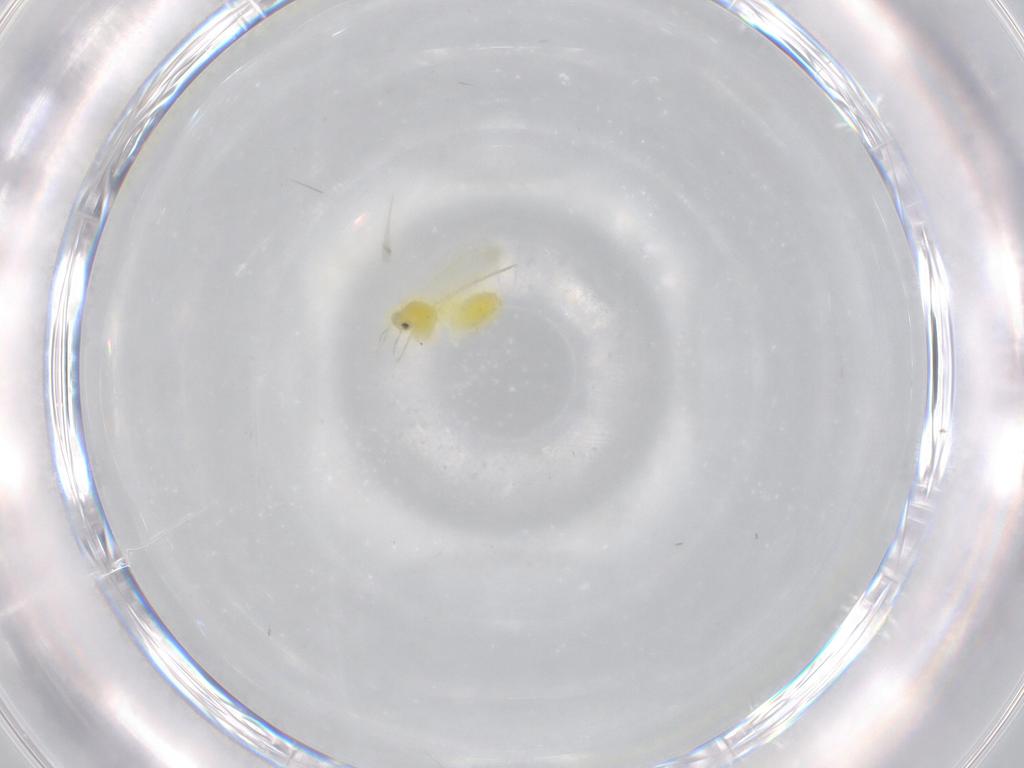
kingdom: Animalia
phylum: Arthropoda
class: Insecta
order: Hemiptera
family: Aleyrodidae
